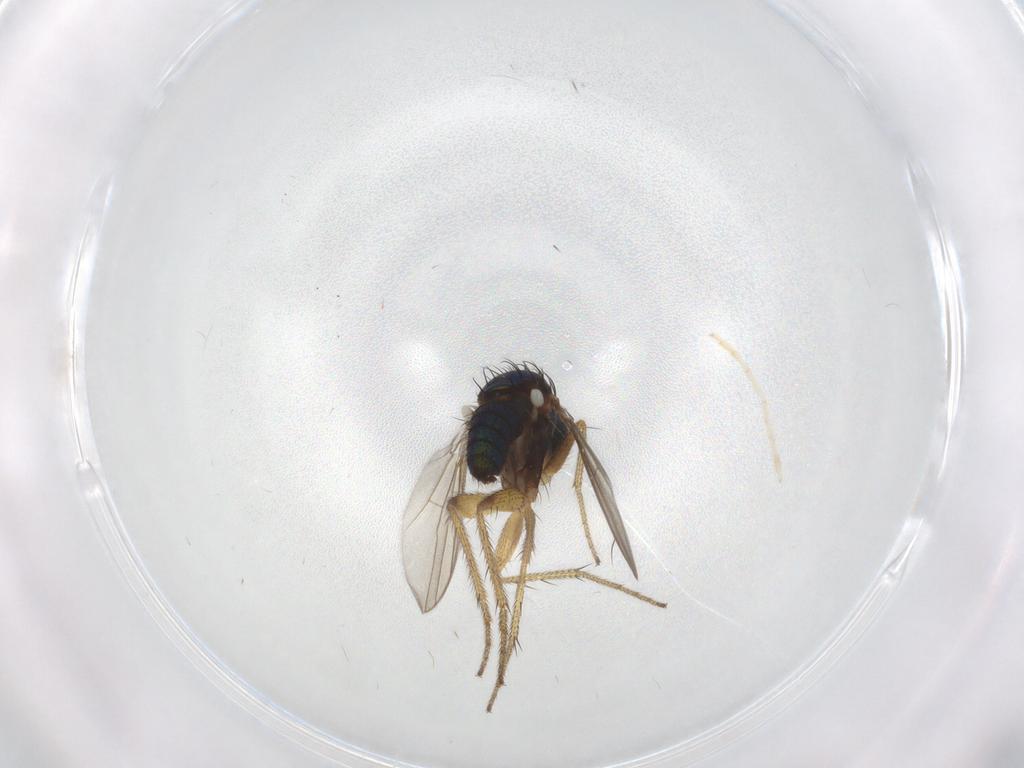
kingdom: Animalia
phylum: Arthropoda
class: Insecta
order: Diptera
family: Chironomidae
